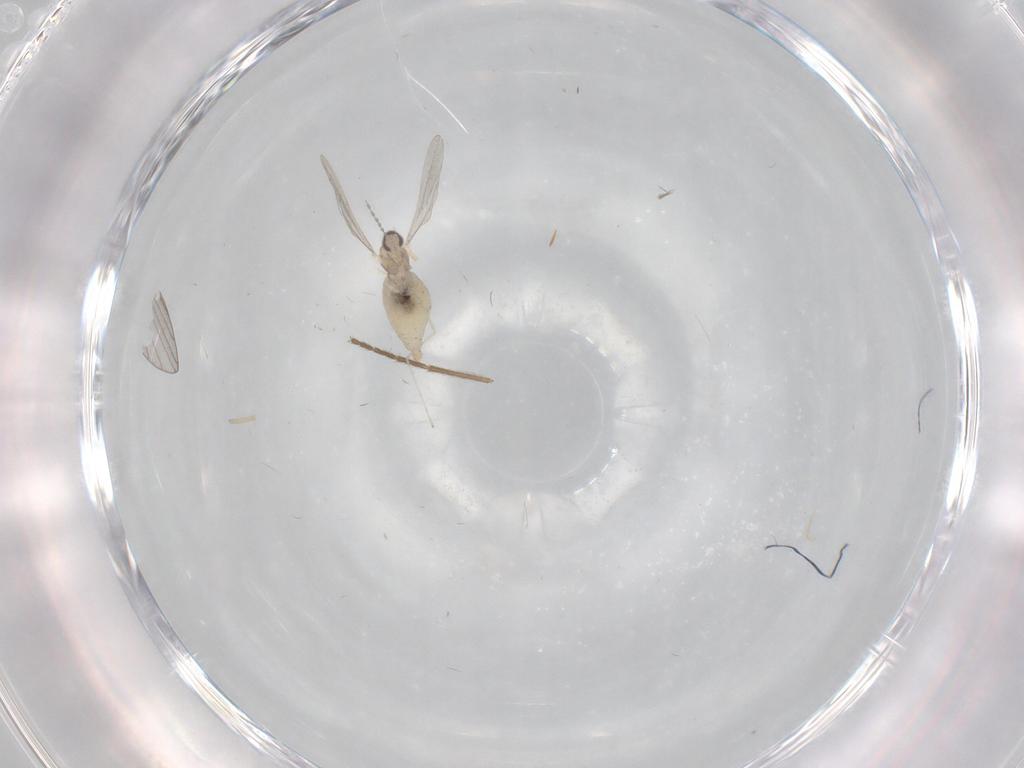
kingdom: Animalia
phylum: Arthropoda
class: Insecta
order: Diptera
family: Chironomidae
